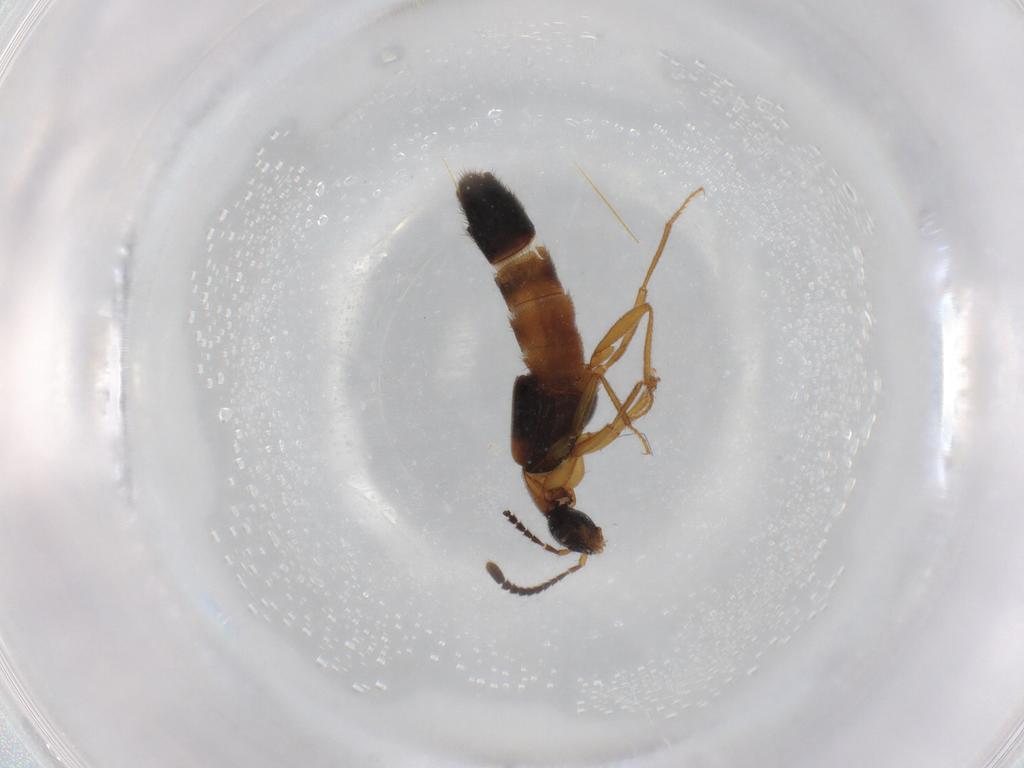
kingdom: Animalia
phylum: Arthropoda
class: Insecta
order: Coleoptera
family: Staphylinidae
